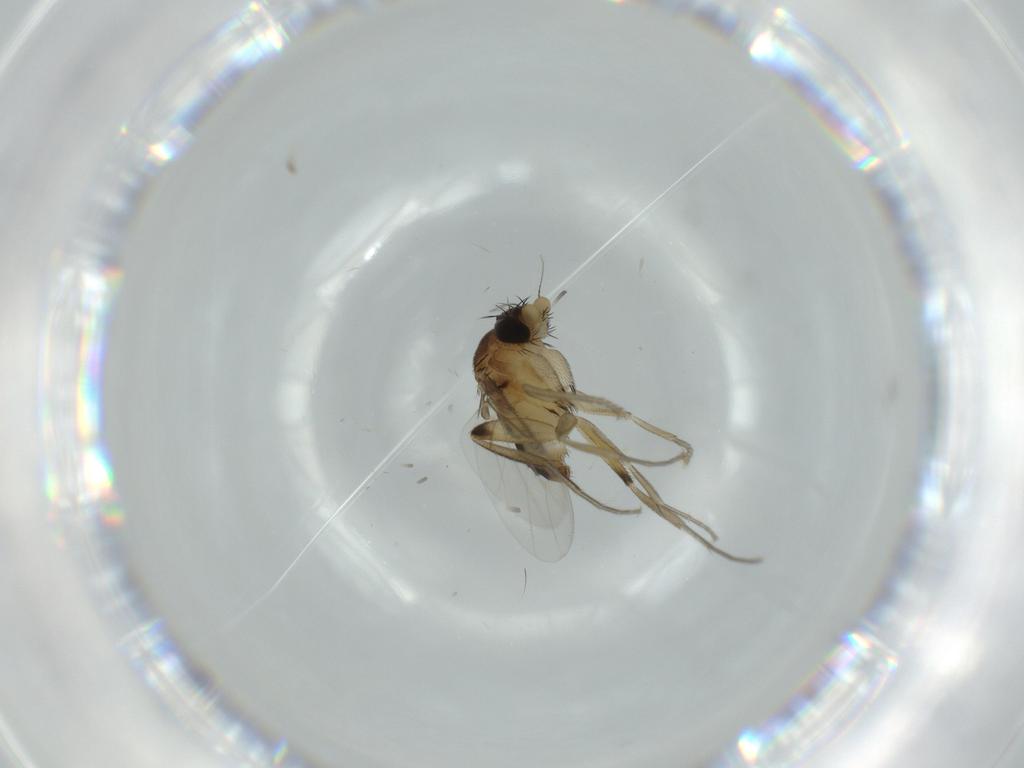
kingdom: Animalia
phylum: Arthropoda
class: Insecta
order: Diptera
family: Phoridae
